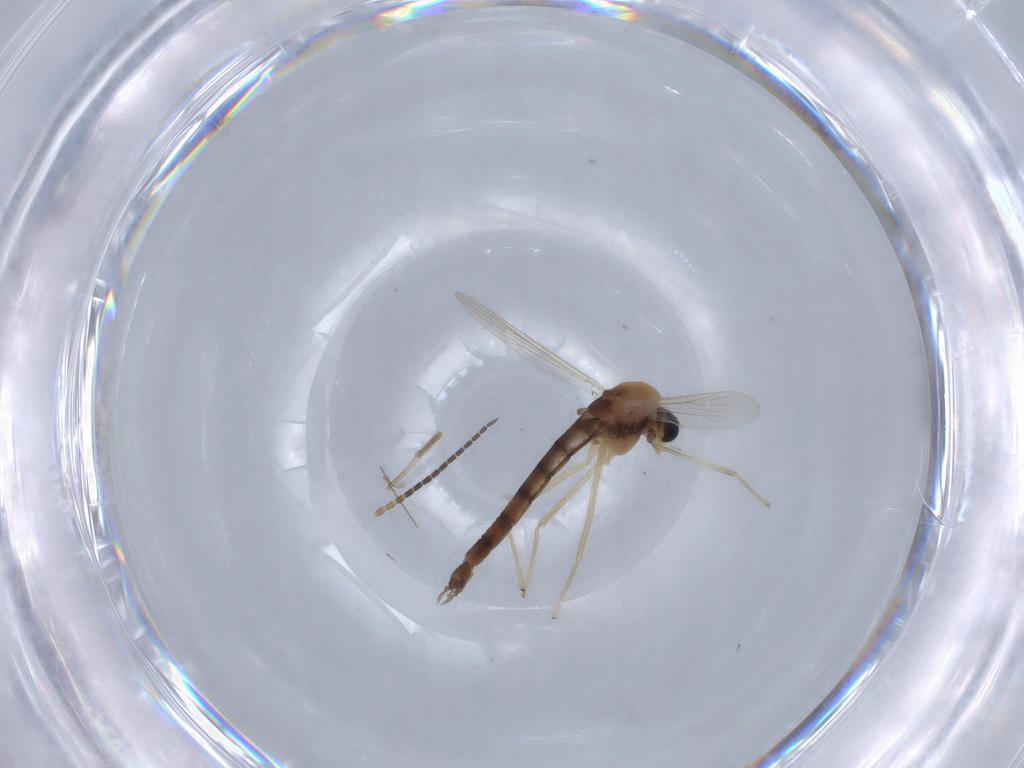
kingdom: Animalia
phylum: Arthropoda
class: Insecta
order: Diptera
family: Chironomidae
